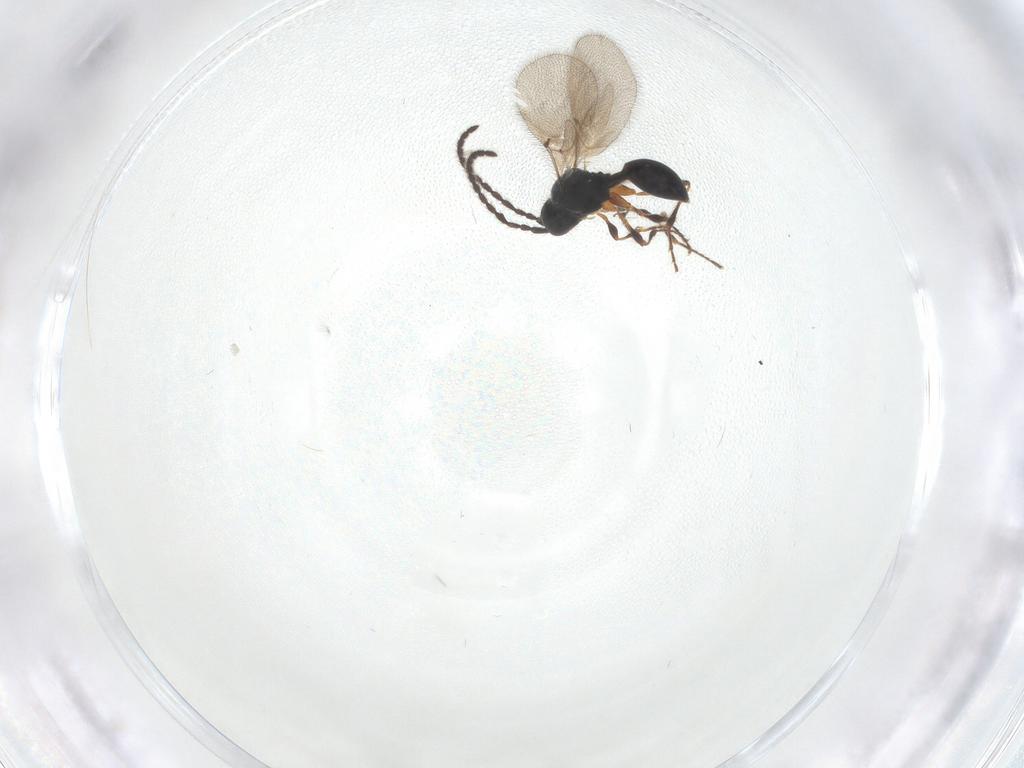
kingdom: Animalia
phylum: Arthropoda
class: Insecta
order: Hymenoptera
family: Diapriidae
